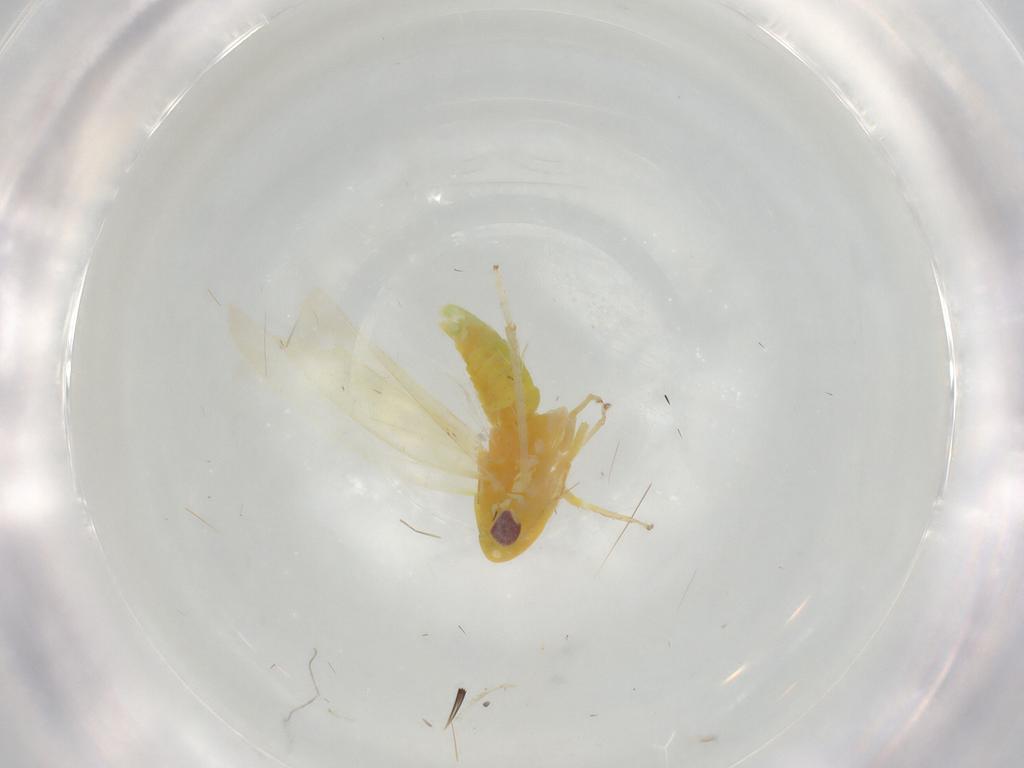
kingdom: Animalia
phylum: Arthropoda
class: Insecta
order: Hemiptera
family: Cicadellidae
